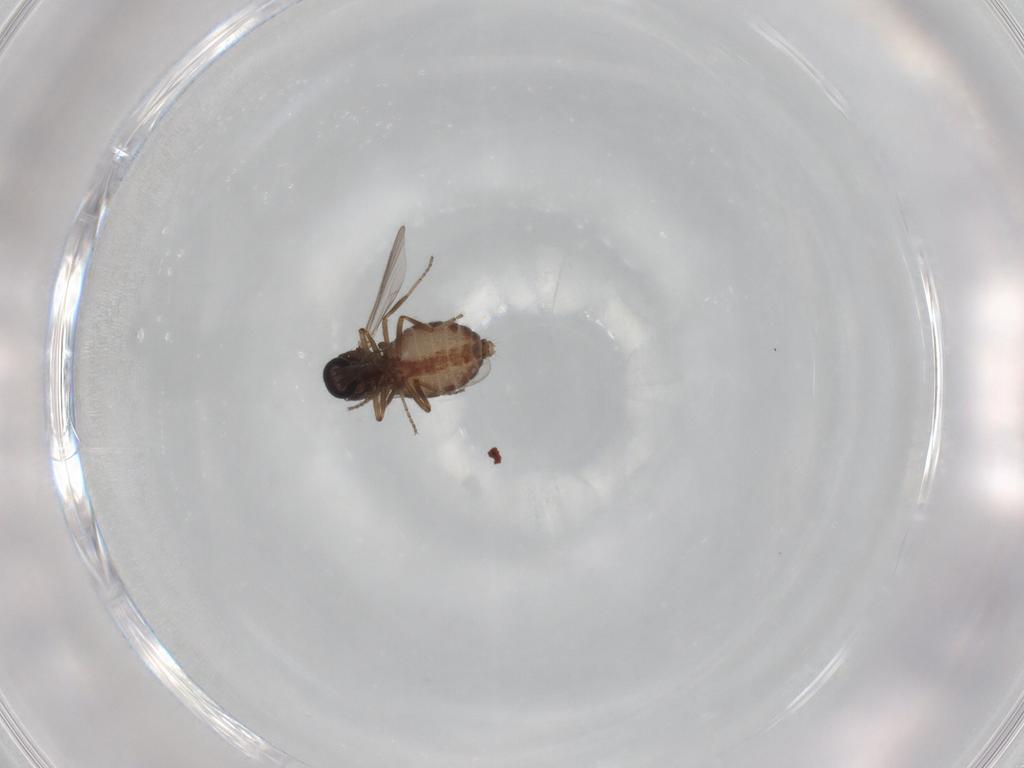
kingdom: Animalia
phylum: Arthropoda
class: Insecta
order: Diptera
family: Ceratopogonidae
